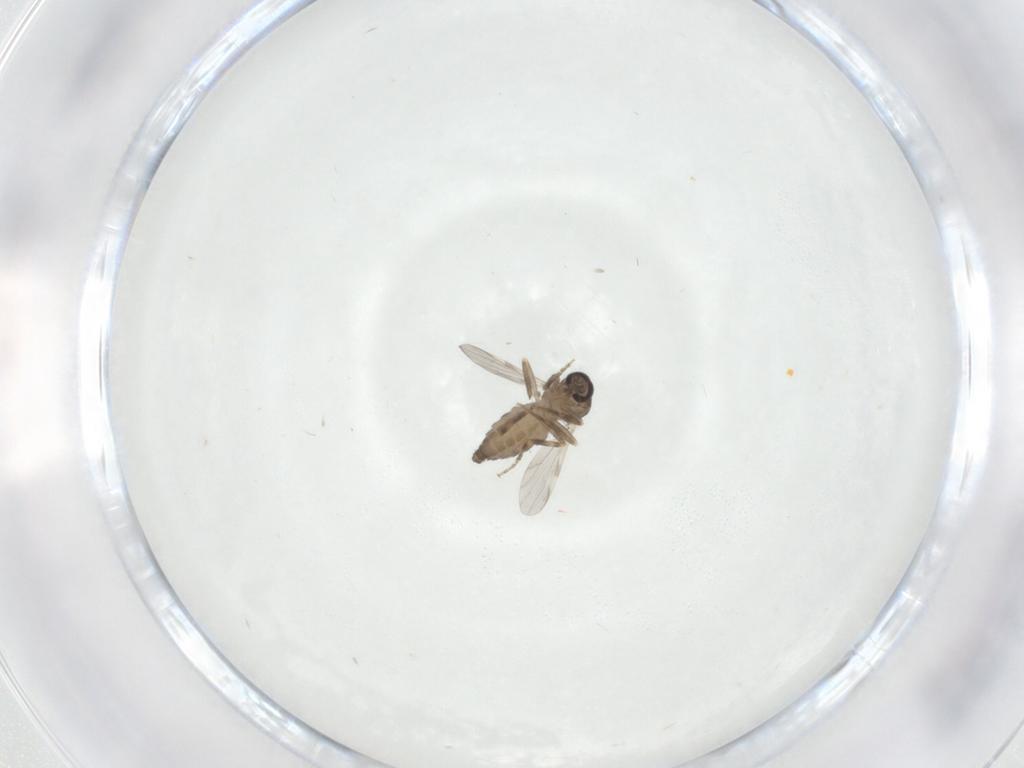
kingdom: Animalia
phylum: Arthropoda
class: Insecta
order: Diptera
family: Ceratopogonidae
